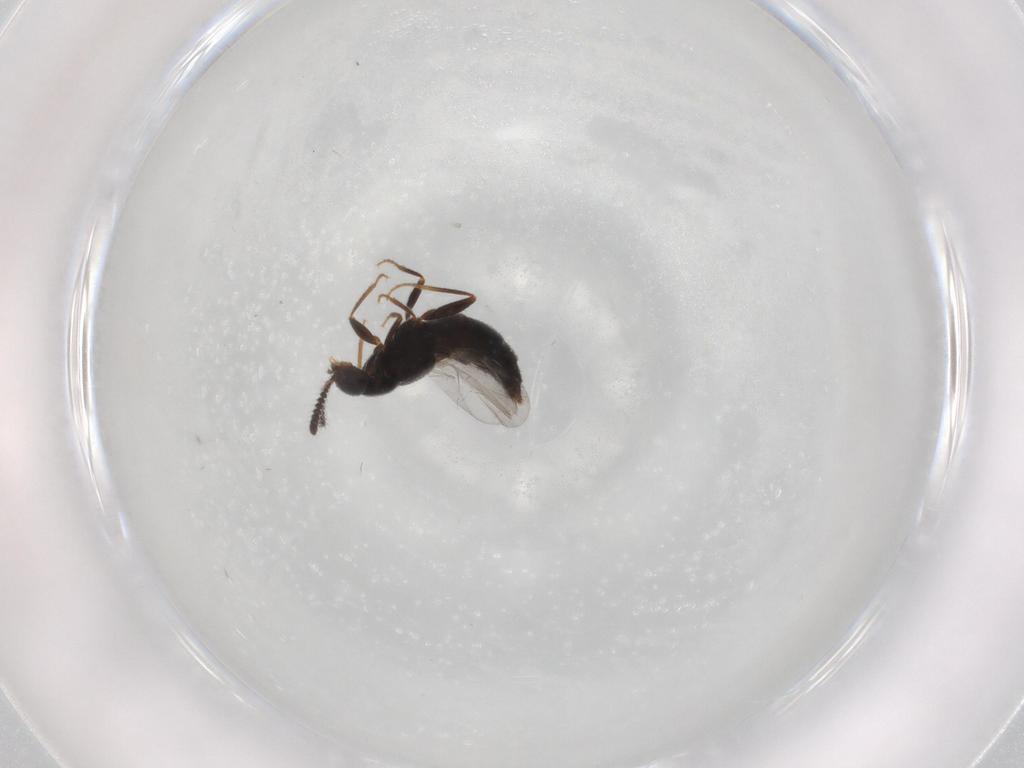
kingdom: Animalia
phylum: Arthropoda
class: Insecta
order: Coleoptera
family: Staphylinidae
